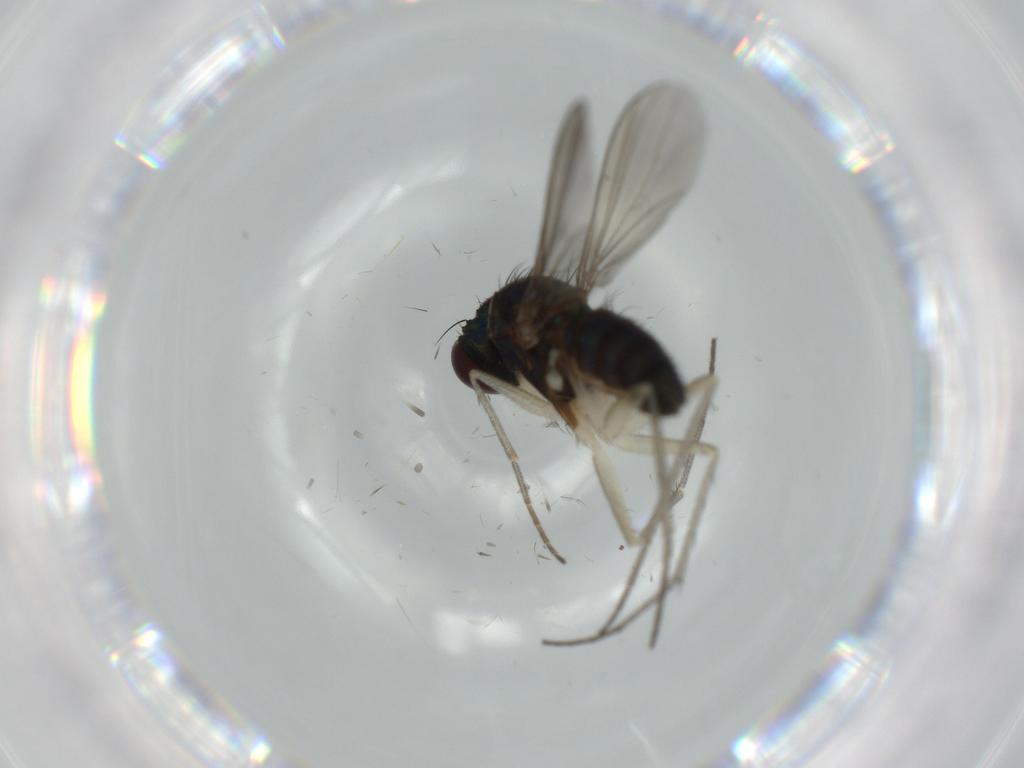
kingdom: Animalia
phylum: Arthropoda
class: Insecta
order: Diptera
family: Dolichopodidae
